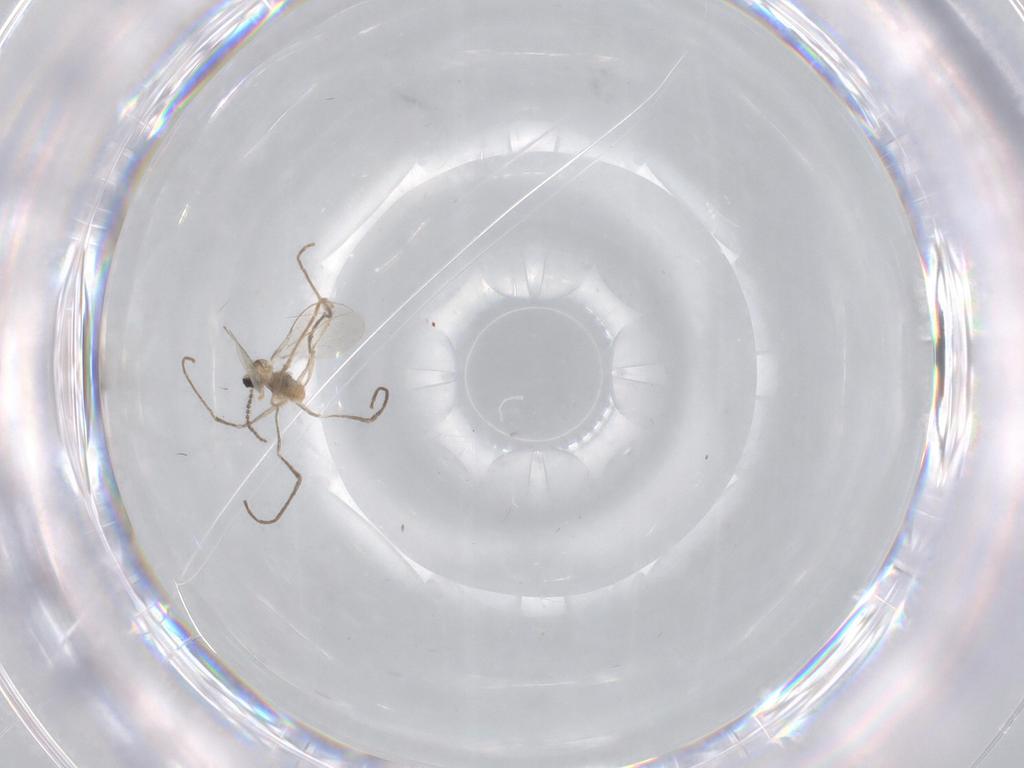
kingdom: Animalia
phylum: Arthropoda
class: Insecta
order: Diptera
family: Cecidomyiidae
